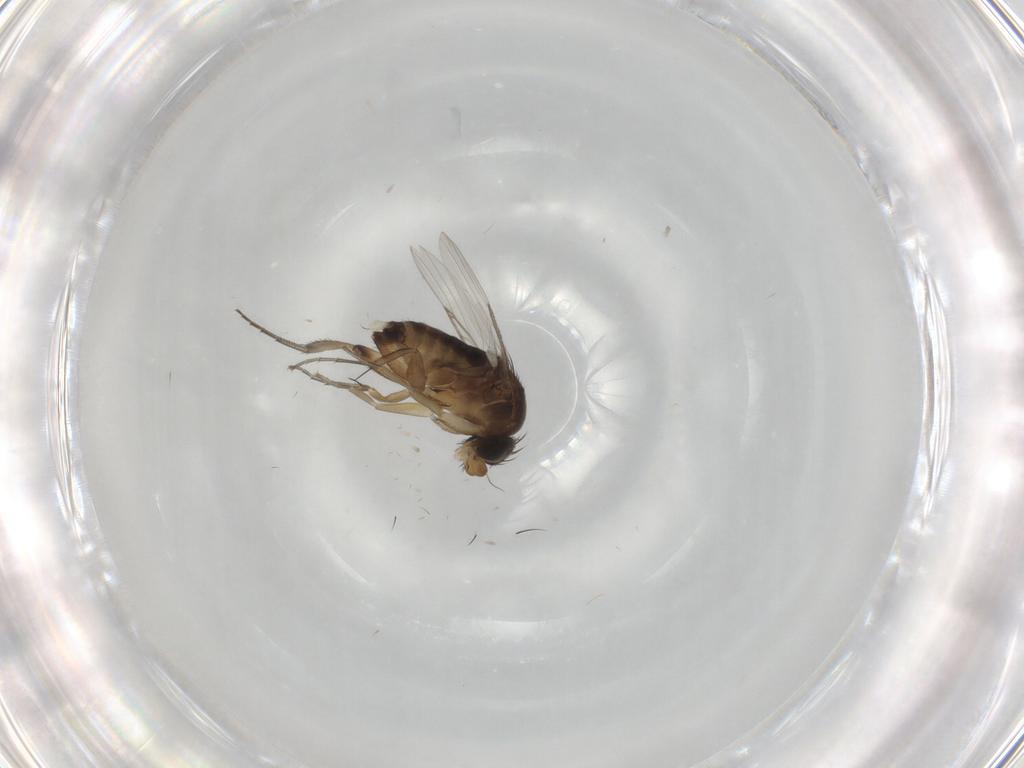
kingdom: Animalia
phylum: Arthropoda
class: Insecta
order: Diptera
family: Phoridae
